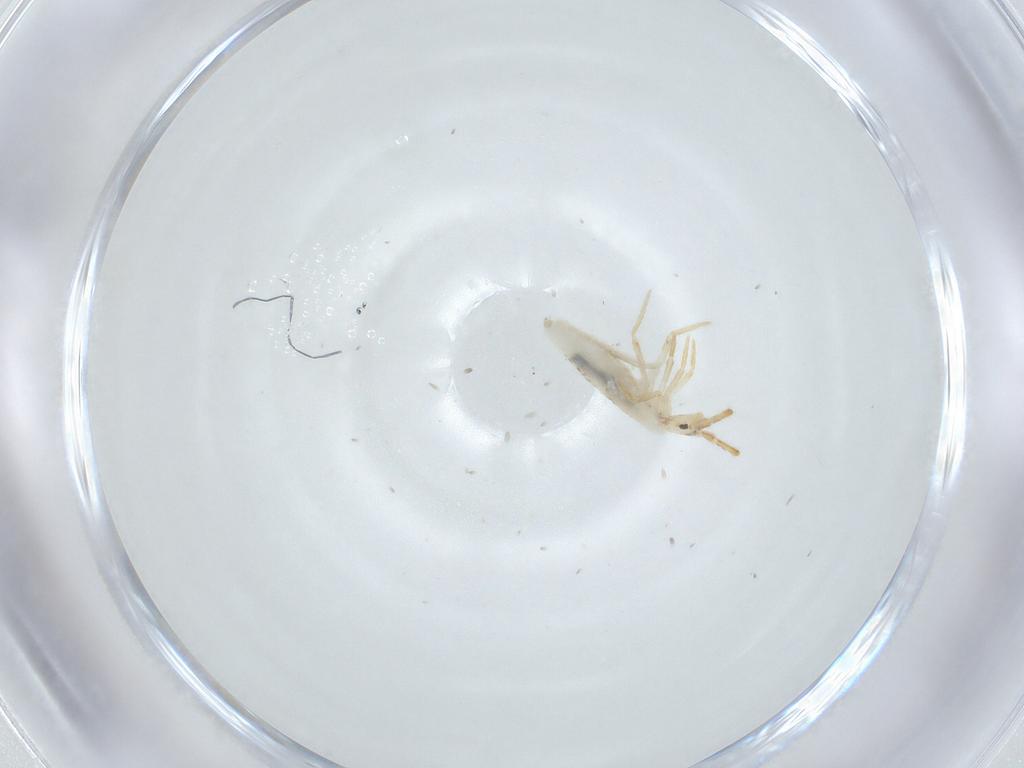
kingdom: Animalia
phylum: Arthropoda
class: Collembola
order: Entomobryomorpha
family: Entomobryidae
